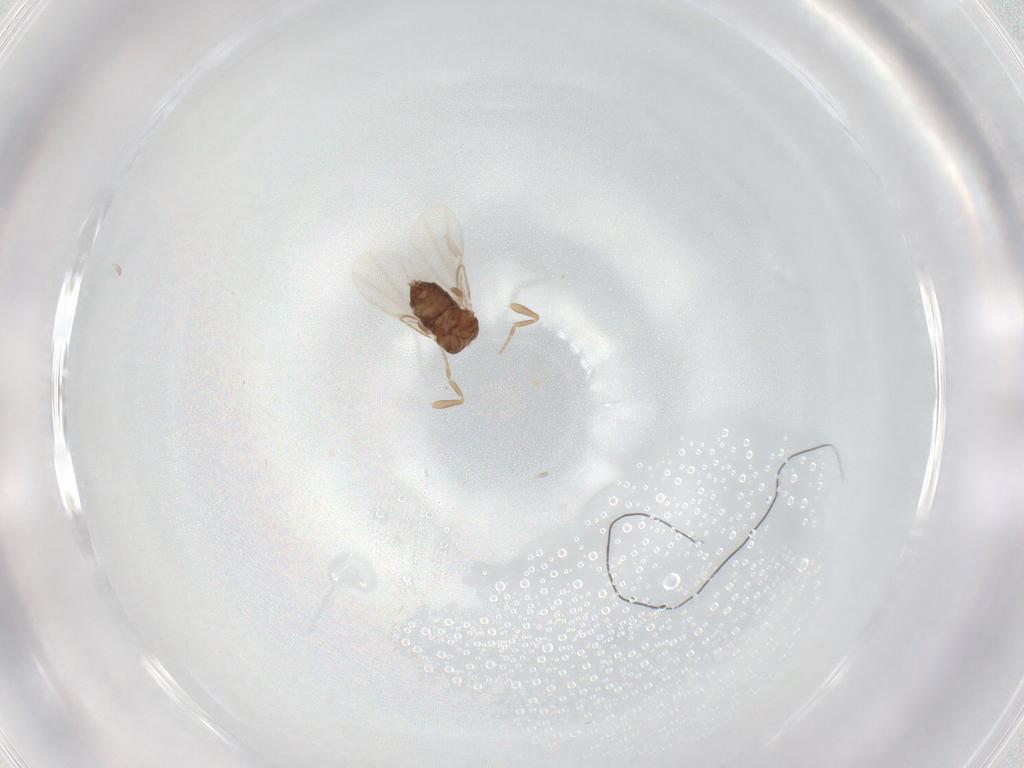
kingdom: Animalia
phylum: Arthropoda
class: Insecta
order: Diptera
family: Phoridae
